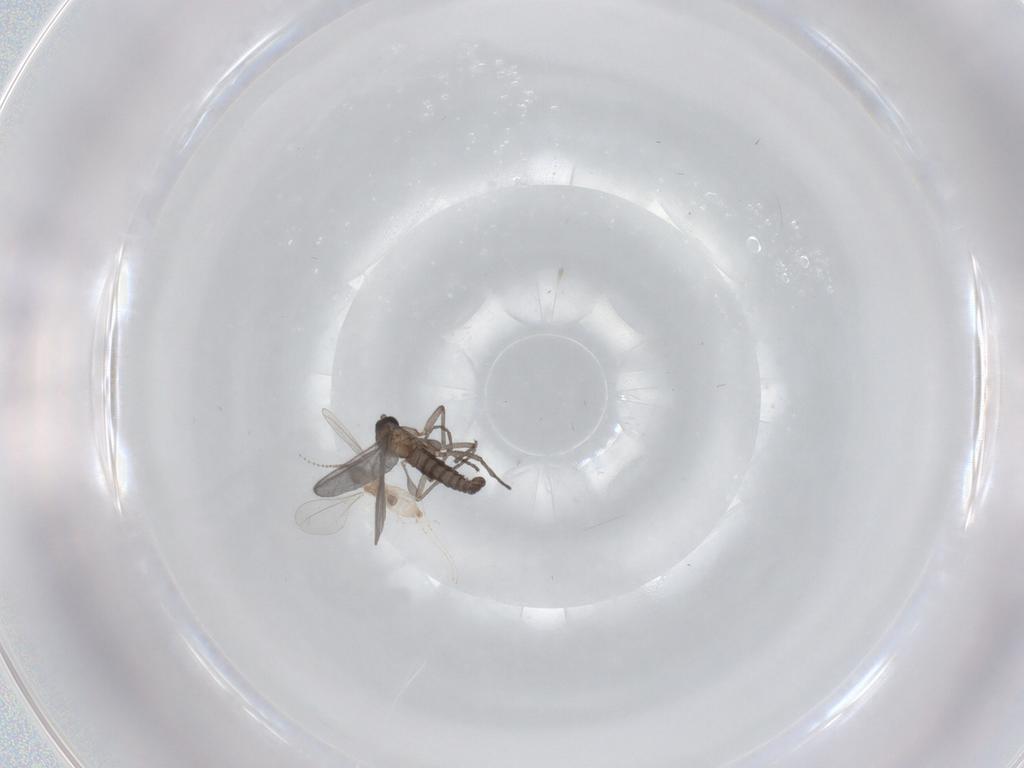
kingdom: Animalia
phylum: Arthropoda
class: Insecta
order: Diptera
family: Sciaridae
